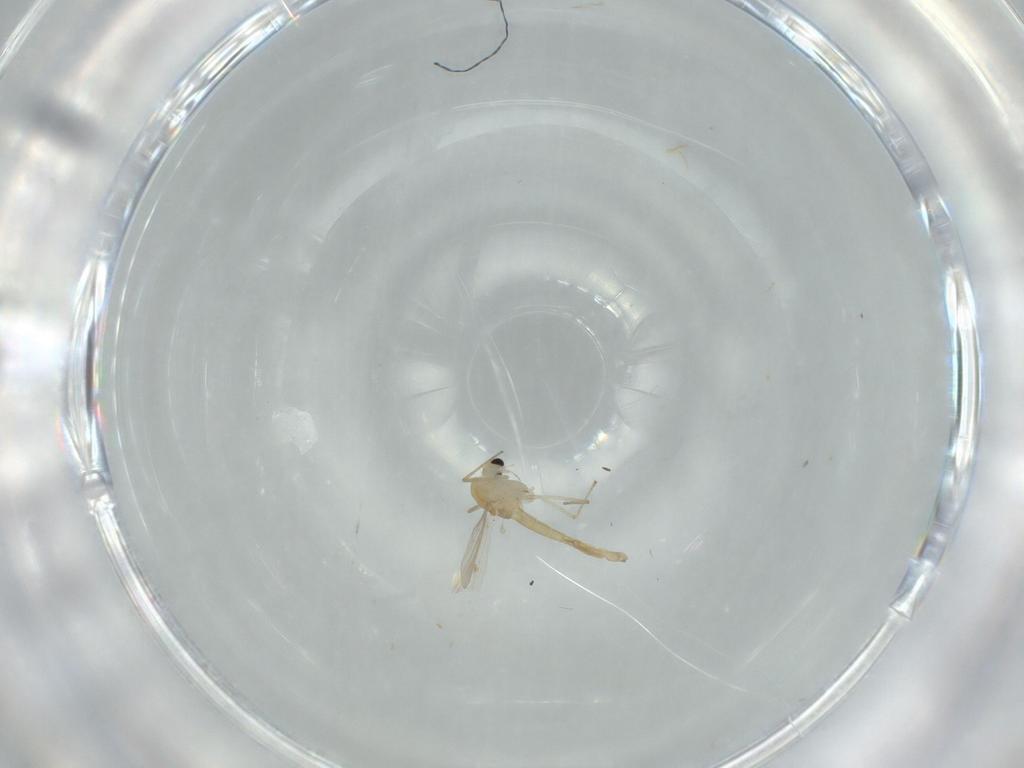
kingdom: Animalia
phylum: Arthropoda
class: Insecta
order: Diptera
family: Chironomidae
